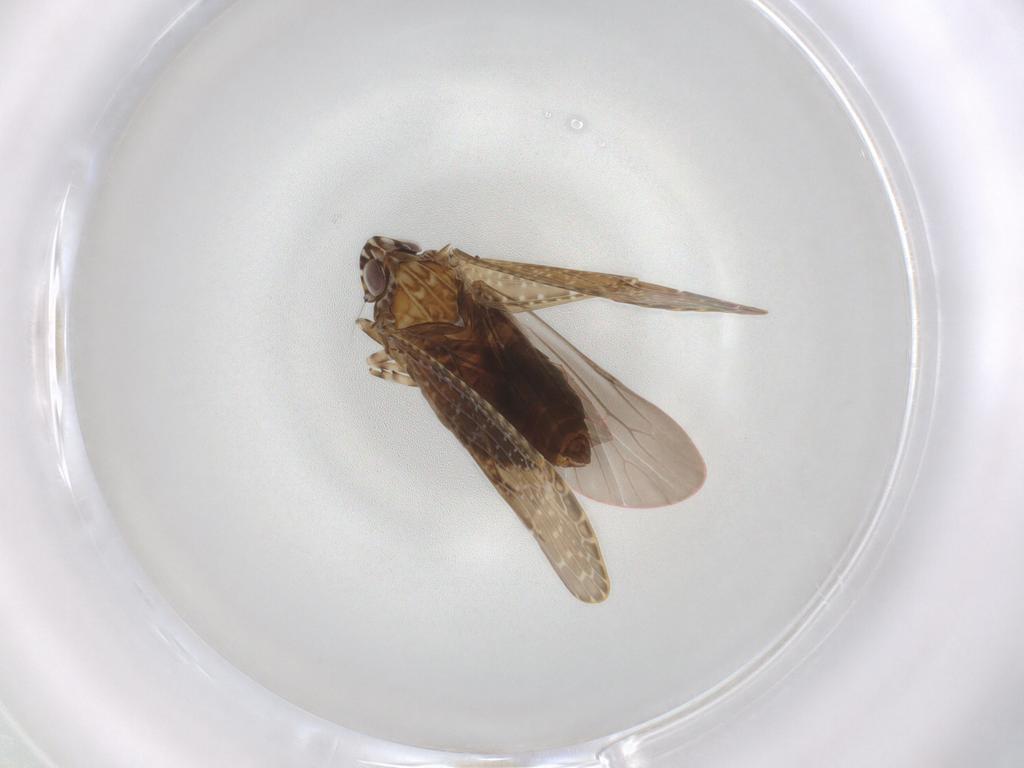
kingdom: Animalia
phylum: Arthropoda
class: Insecta
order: Hemiptera
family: Achilidae
